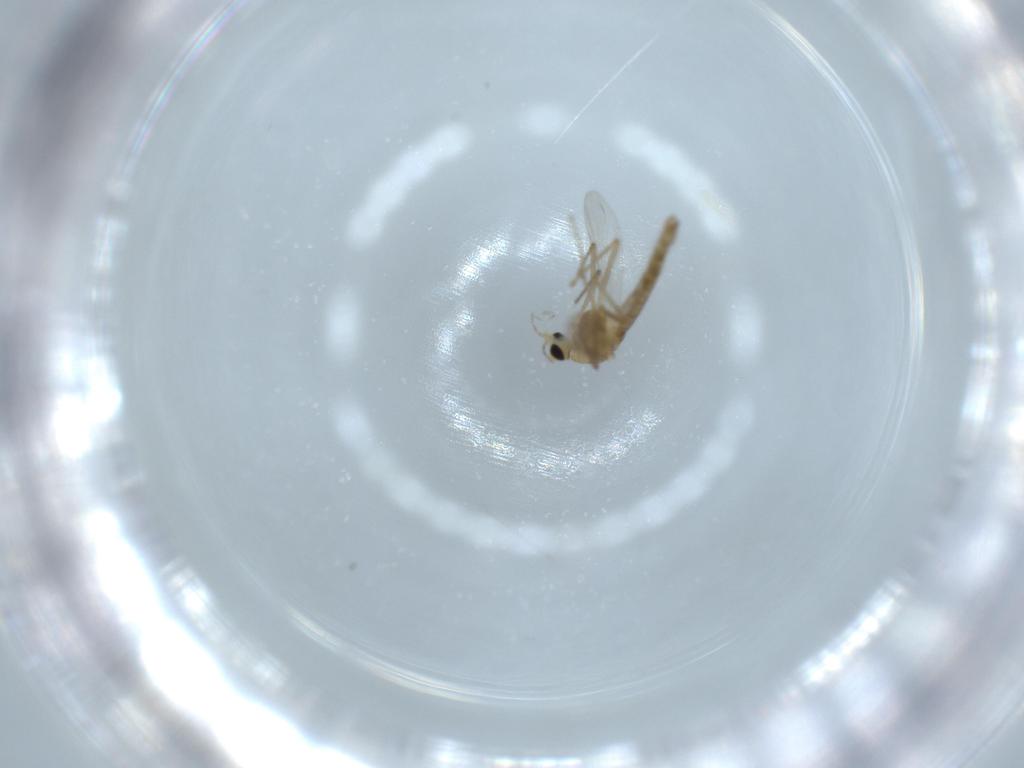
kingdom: Animalia
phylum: Arthropoda
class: Insecta
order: Diptera
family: Chironomidae
